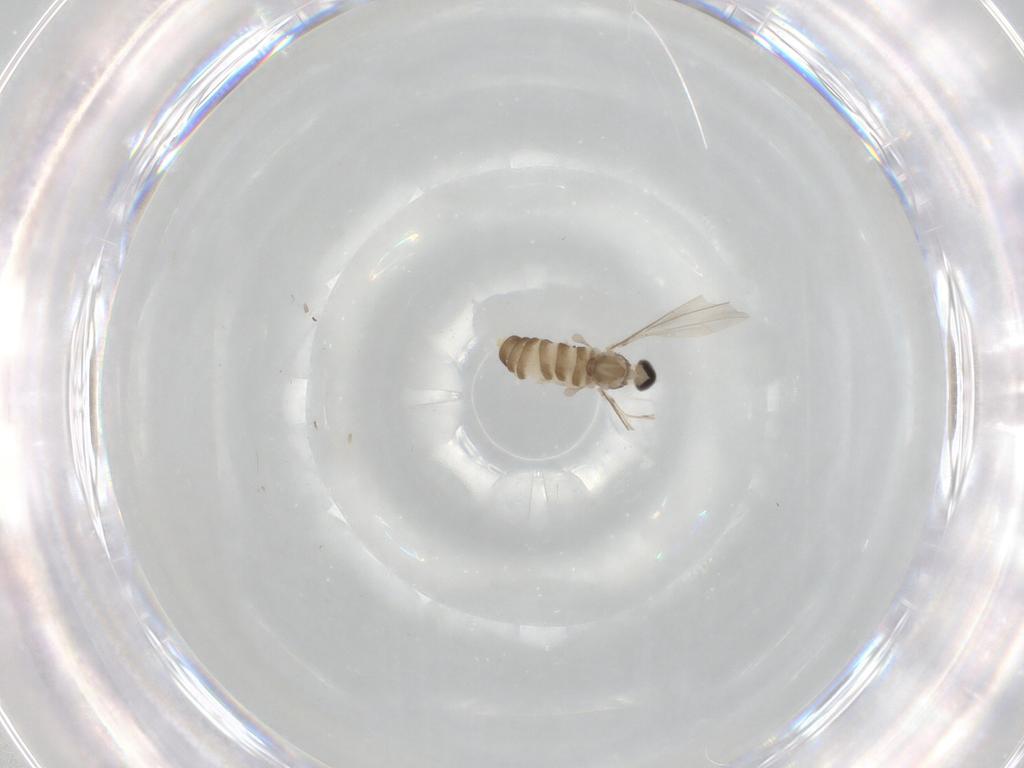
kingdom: Animalia
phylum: Arthropoda
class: Insecta
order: Diptera
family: Cecidomyiidae
